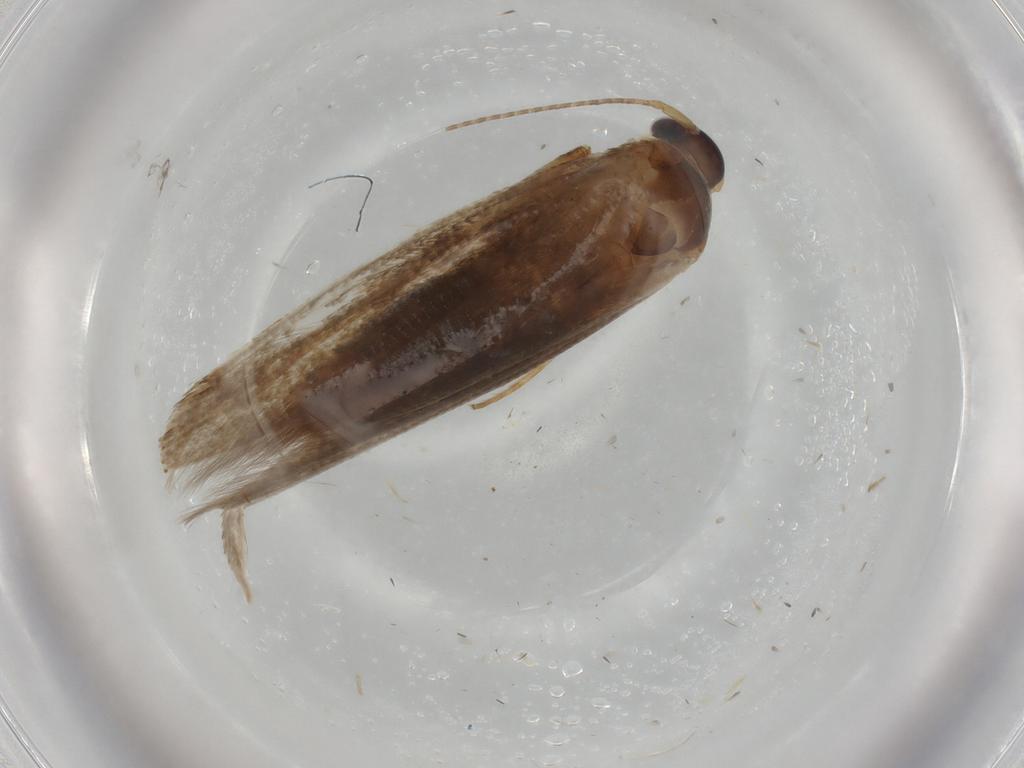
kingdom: Animalia
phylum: Arthropoda
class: Insecta
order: Lepidoptera
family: Blastobasidae
